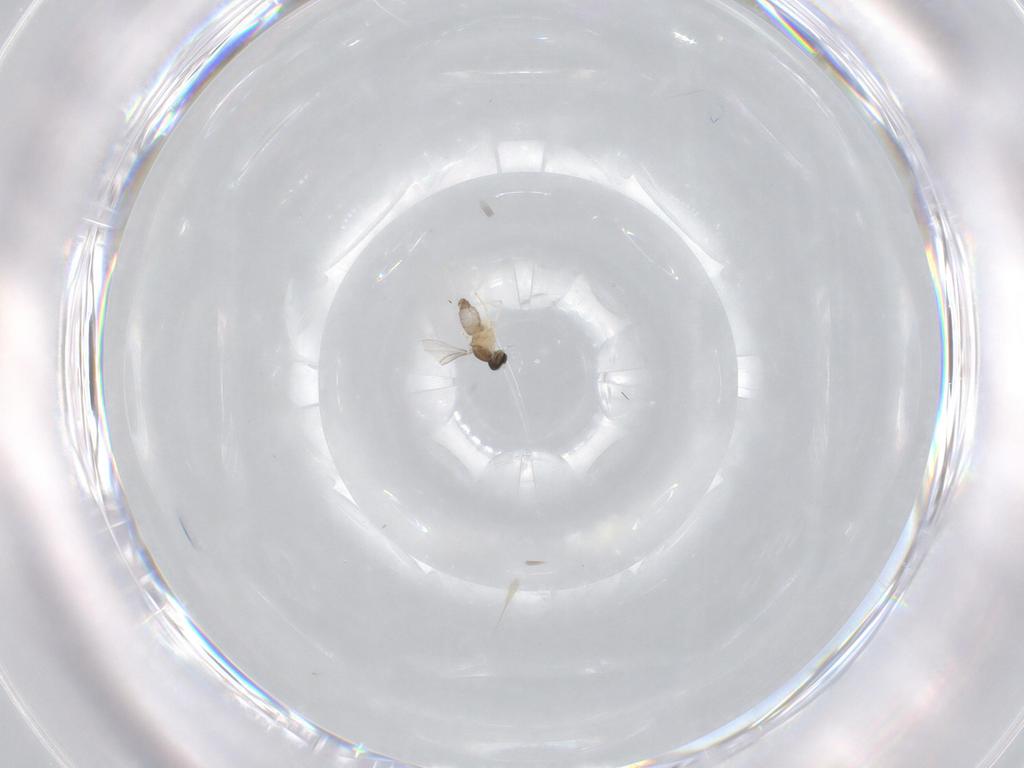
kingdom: Animalia
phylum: Arthropoda
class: Insecta
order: Diptera
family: Cecidomyiidae
